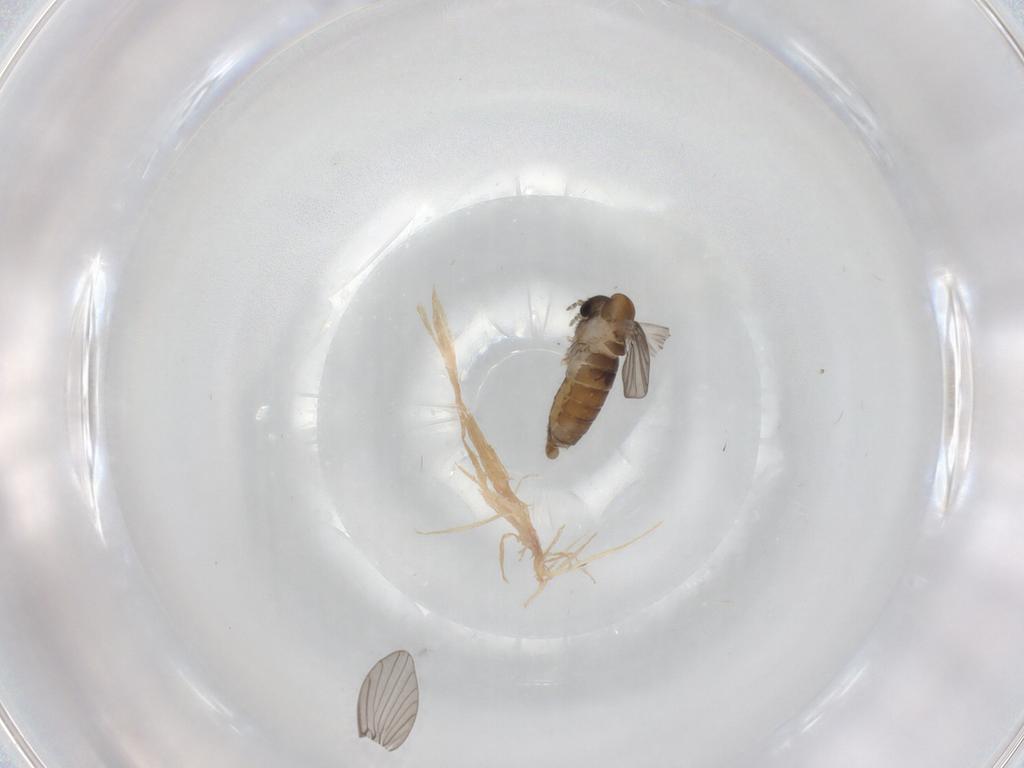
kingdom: Animalia
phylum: Arthropoda
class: Insecta
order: Diptera
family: Psychodidae
